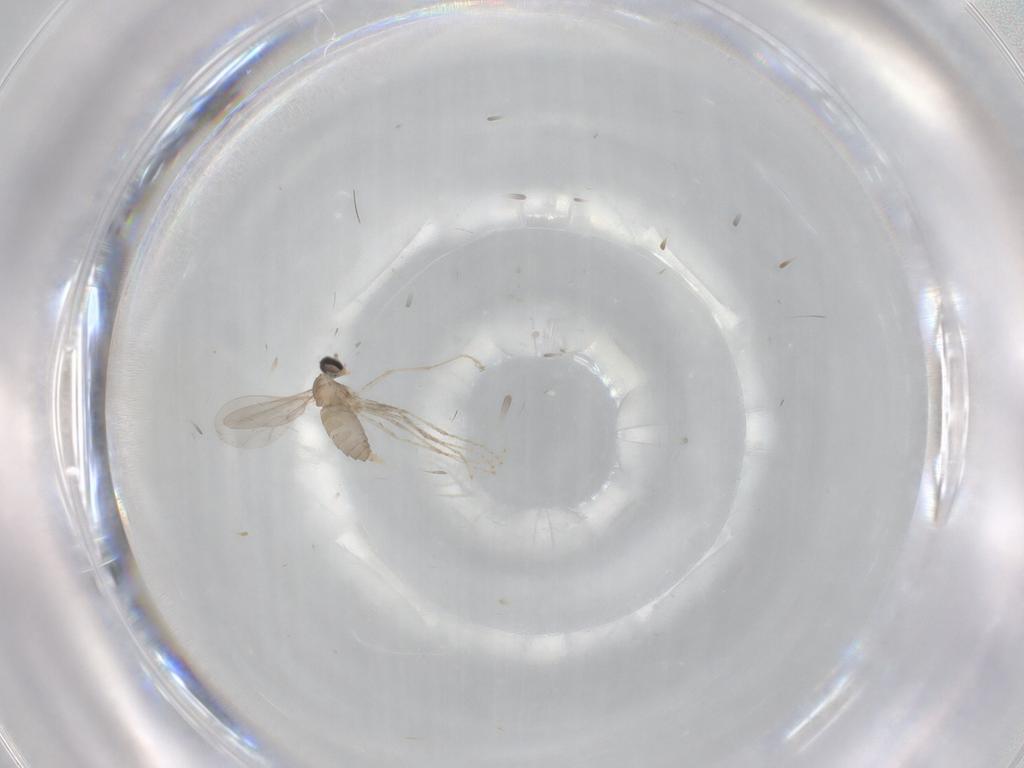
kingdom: Animalia
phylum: Arthropoda
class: Insecta
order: Diptera
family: Cecidomyiidae
